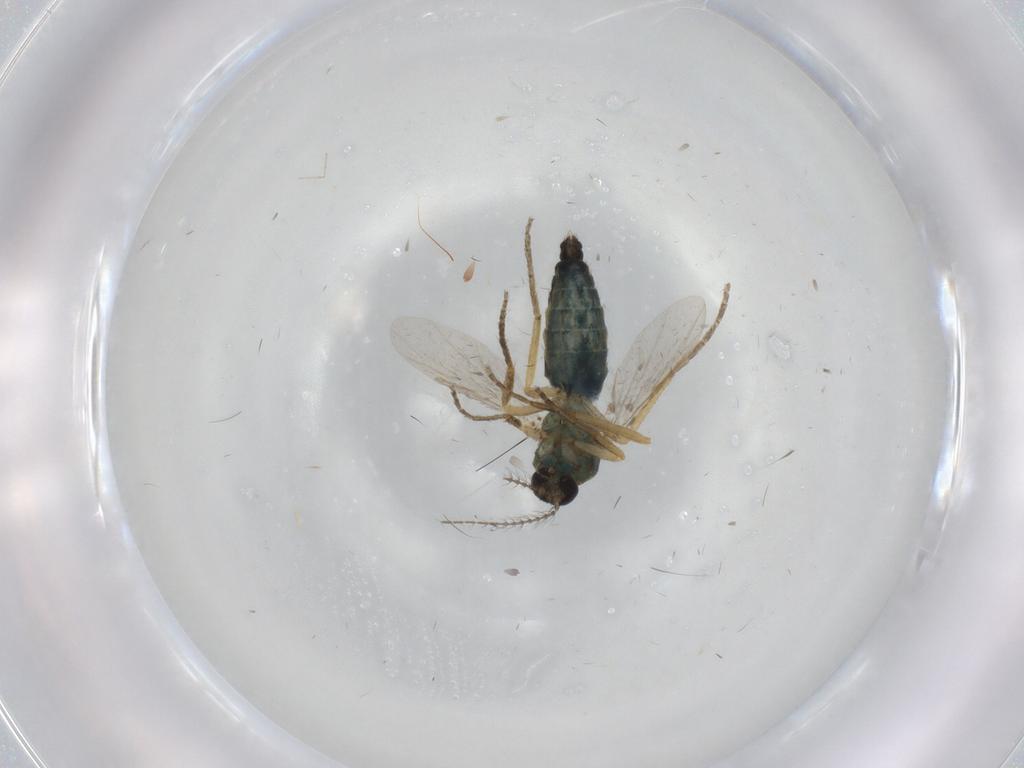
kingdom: Animalia
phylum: Arthropoda
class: Insecta
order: Diptera
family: Ceratopogonidae
